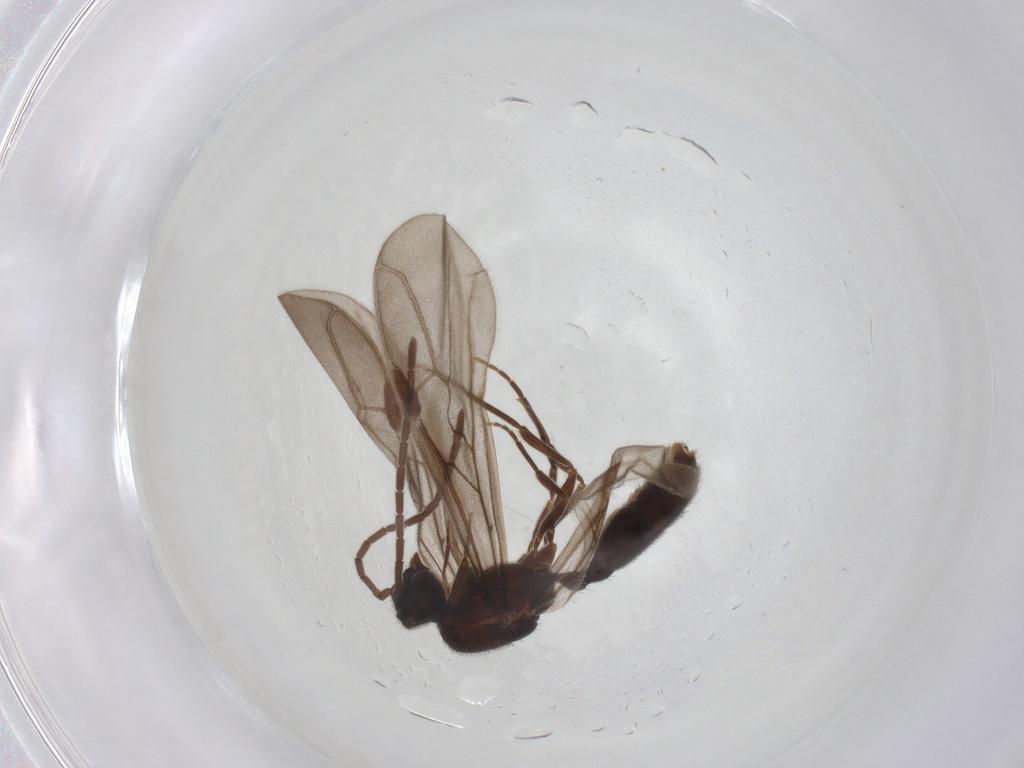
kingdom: Animalia
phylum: Arthropoda
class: Insecta
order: Hymenoptera
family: Formicidae
